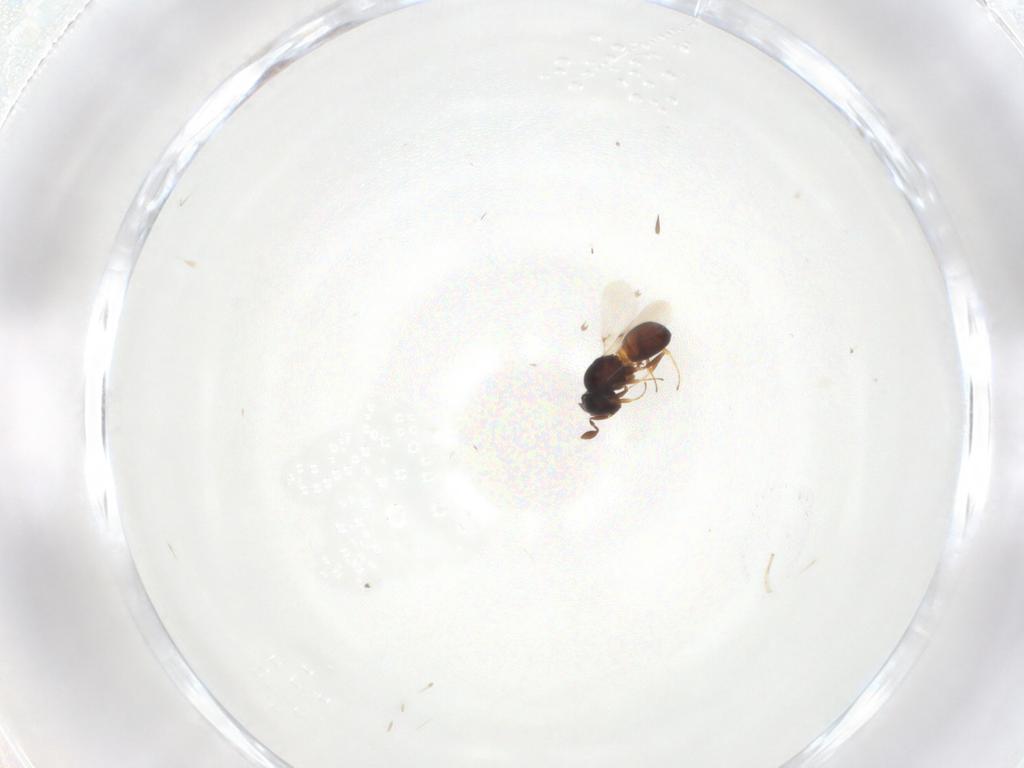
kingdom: Animalia
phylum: Arthropoda
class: Insecta
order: Hymenoptera
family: Scelionidae
